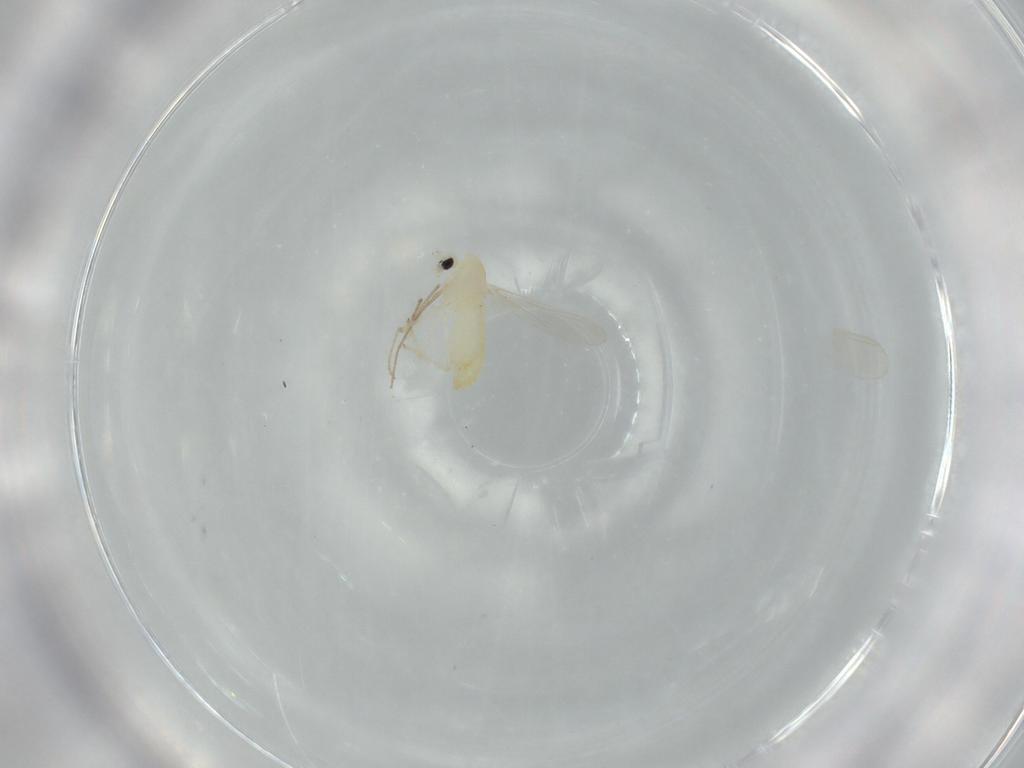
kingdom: Animalia
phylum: Arthropoda
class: Insecta
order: Diptera
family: Chironomidae
